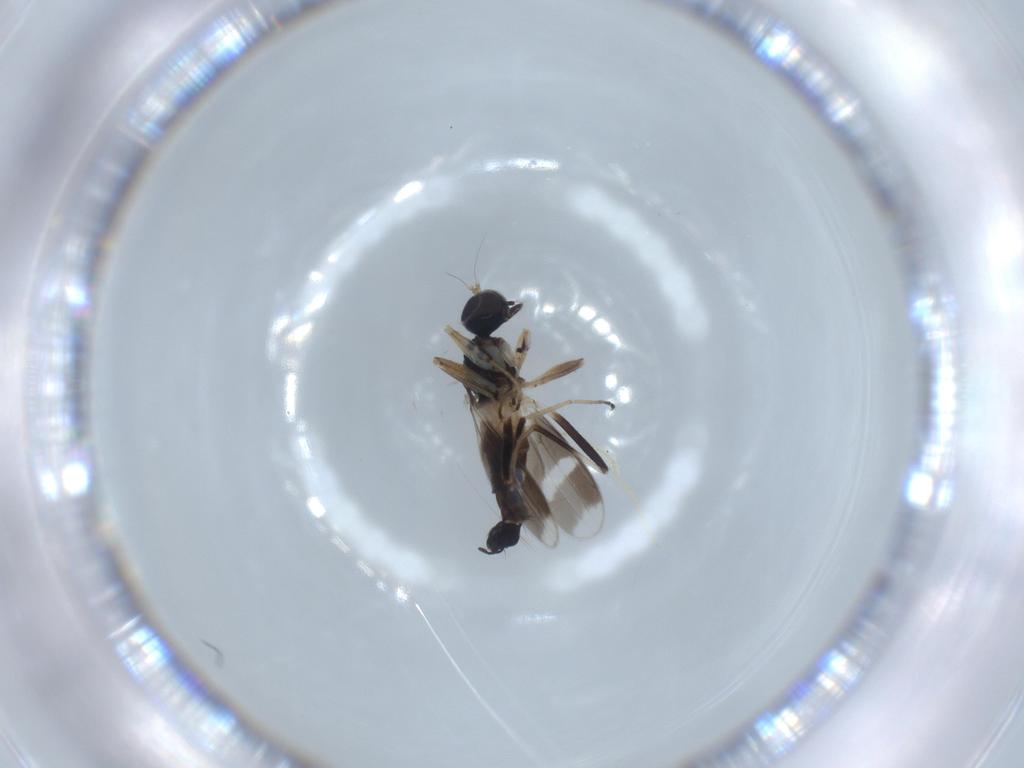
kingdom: Animalia
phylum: Arthropoda
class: Insecta
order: Diptera
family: Hybotidae
